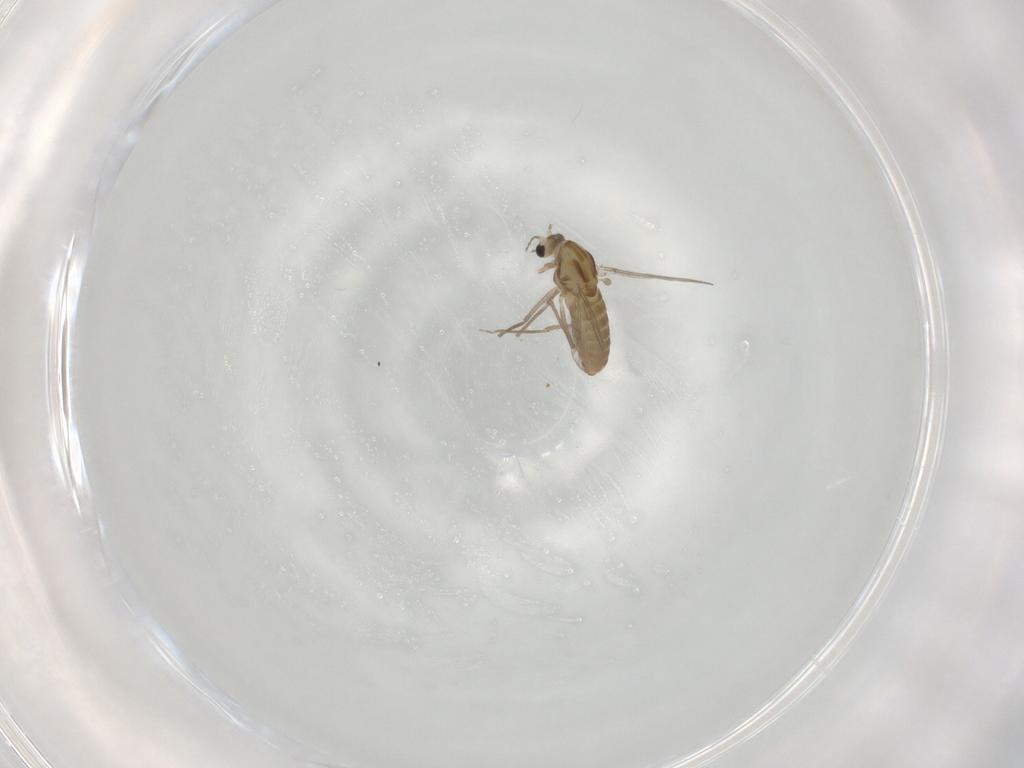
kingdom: Animalia
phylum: Arthropoda
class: Insecta
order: Diptera
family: Chironomidae
